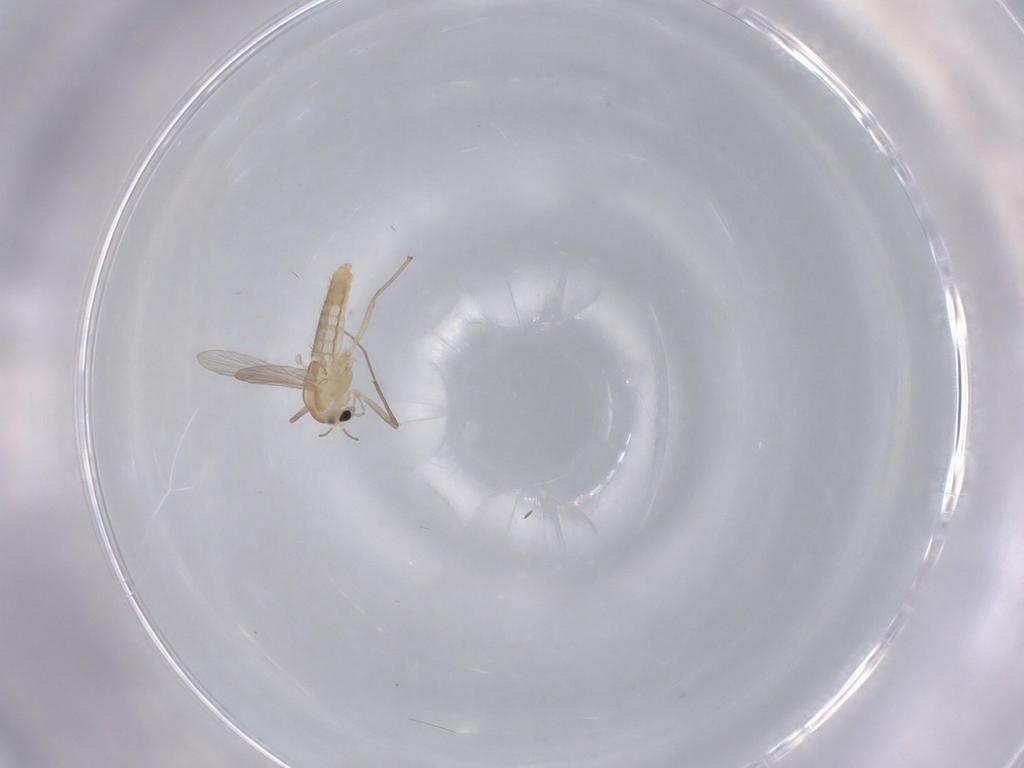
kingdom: Animalia
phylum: Arthropoda
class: Insecta
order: Diptera
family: Chironomidae
